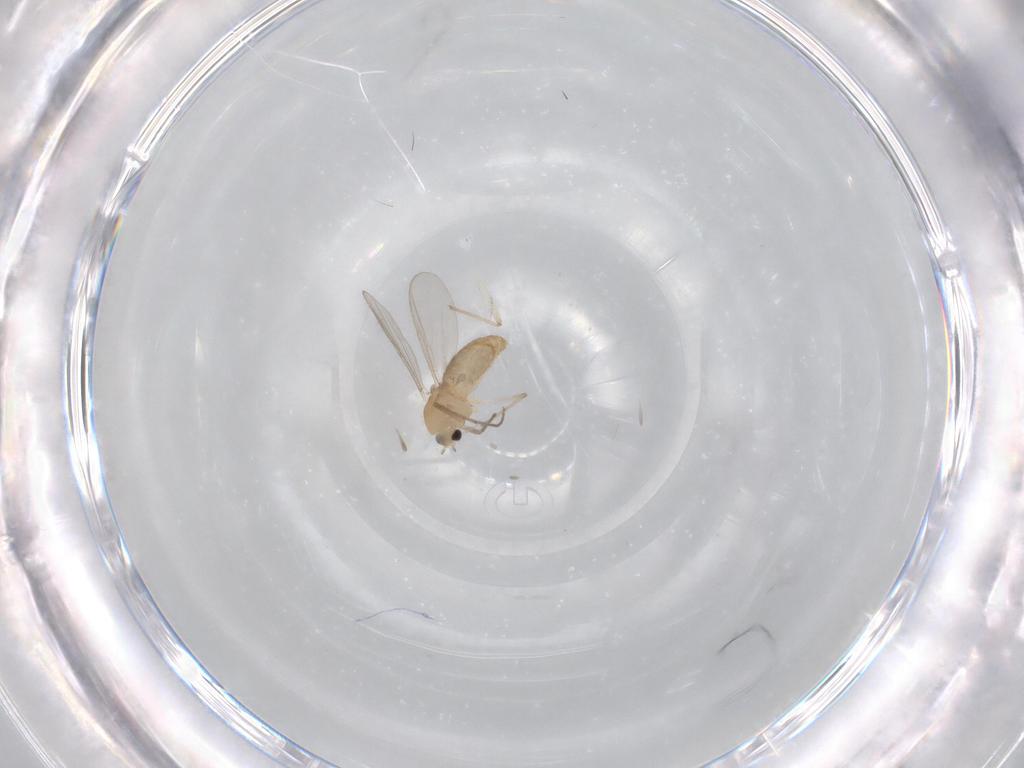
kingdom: Animalia
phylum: Arthropoda
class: Insecta
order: Diptera
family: Chironomidae
